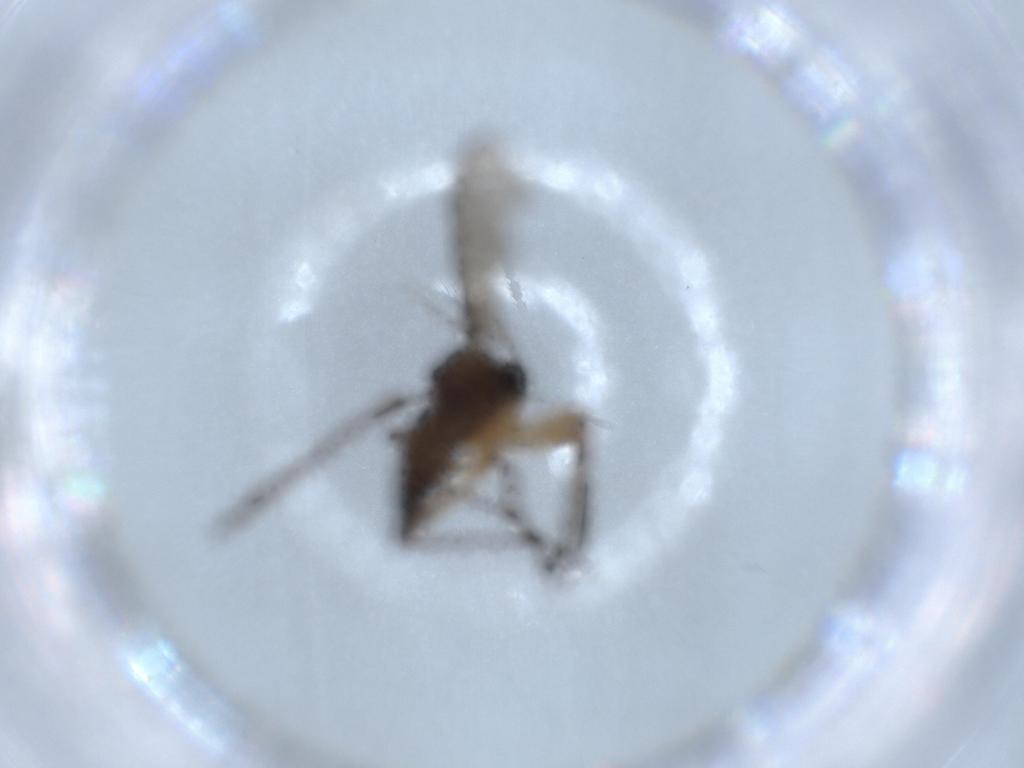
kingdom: Animalia
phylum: Arthropoda
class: Insecta
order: Diptera
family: Sciaridae
